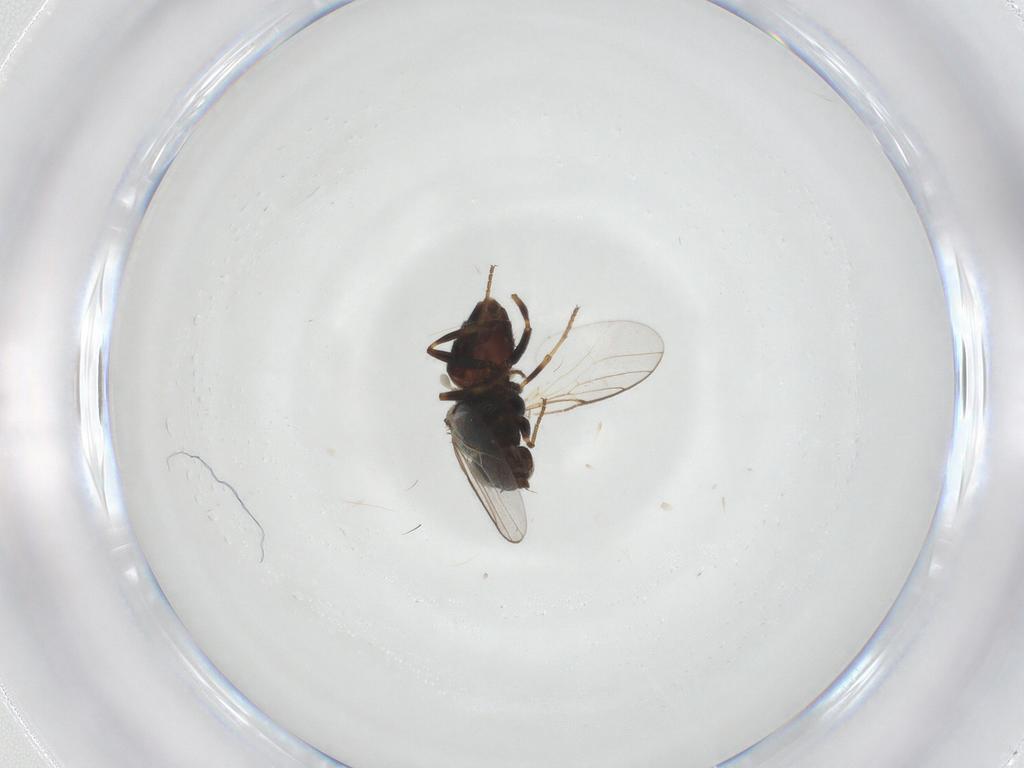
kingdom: Animalia
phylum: Arthropoda
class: Insecta
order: Diptera
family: Chloropidae
